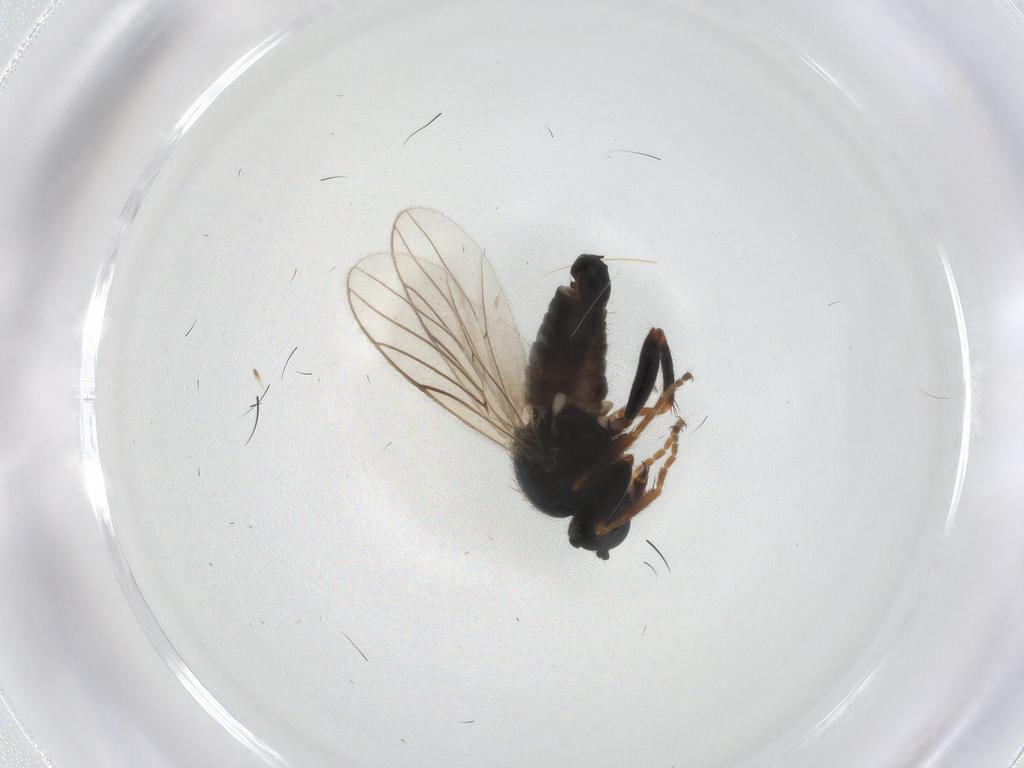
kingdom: Animalia
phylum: Arthropoda
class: Insecta
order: Diptera
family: Hybotidae
